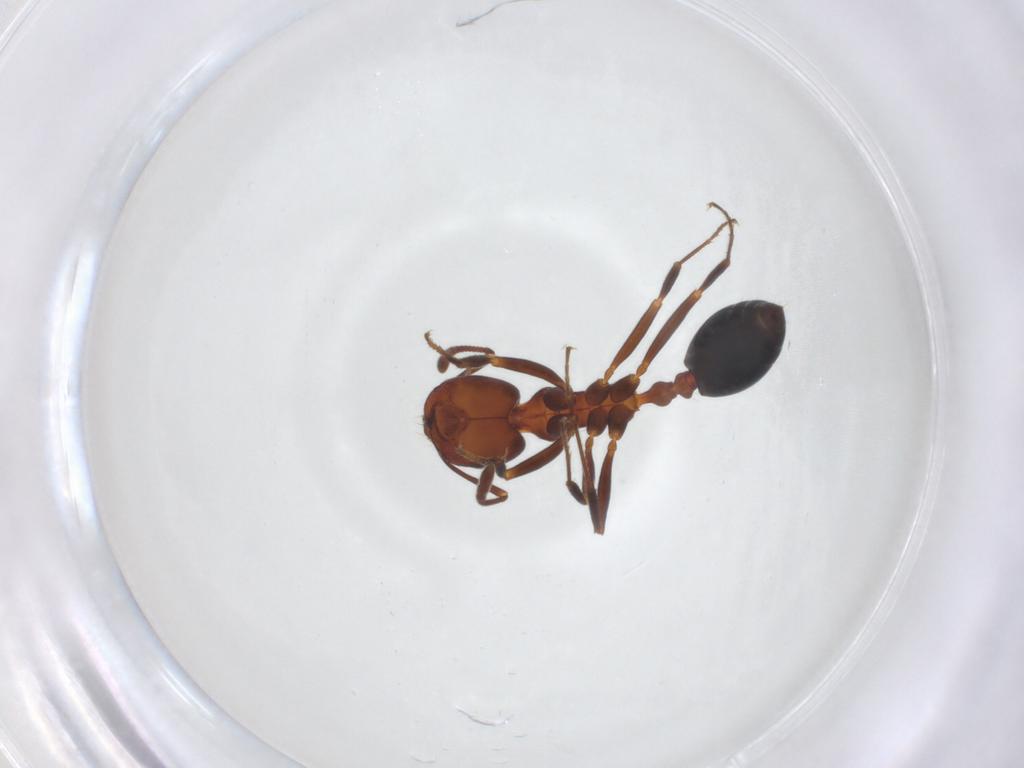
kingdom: Animalia
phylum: Arthropoda
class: Insecta
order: Hymenoptera
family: Formicidae
